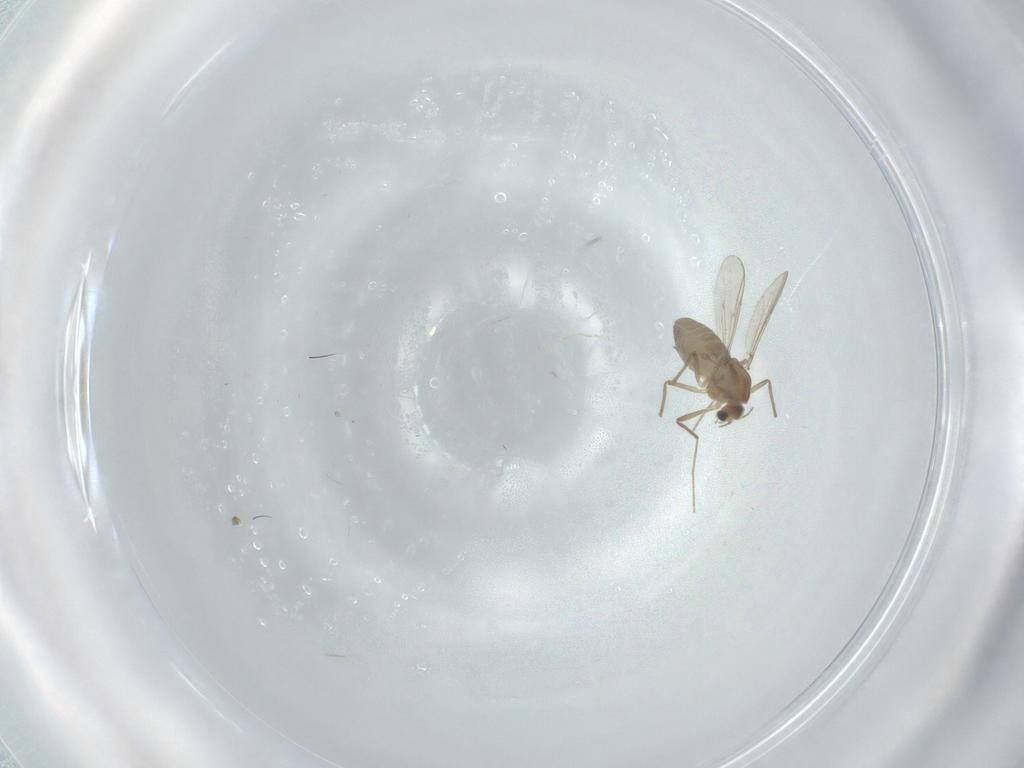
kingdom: Animalia
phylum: Arthropoda
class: Insecta
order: Diptera
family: Chironomidae
